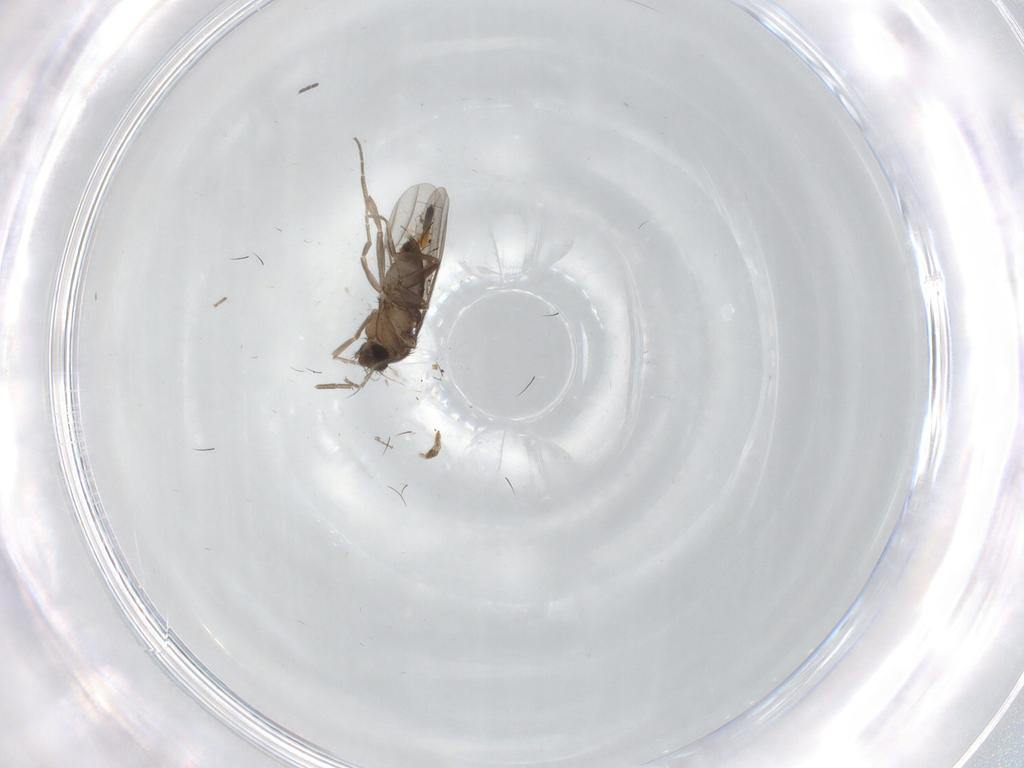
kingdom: Animalia
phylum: Arthropoda
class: Insecta
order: Diptera
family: Phoridae
